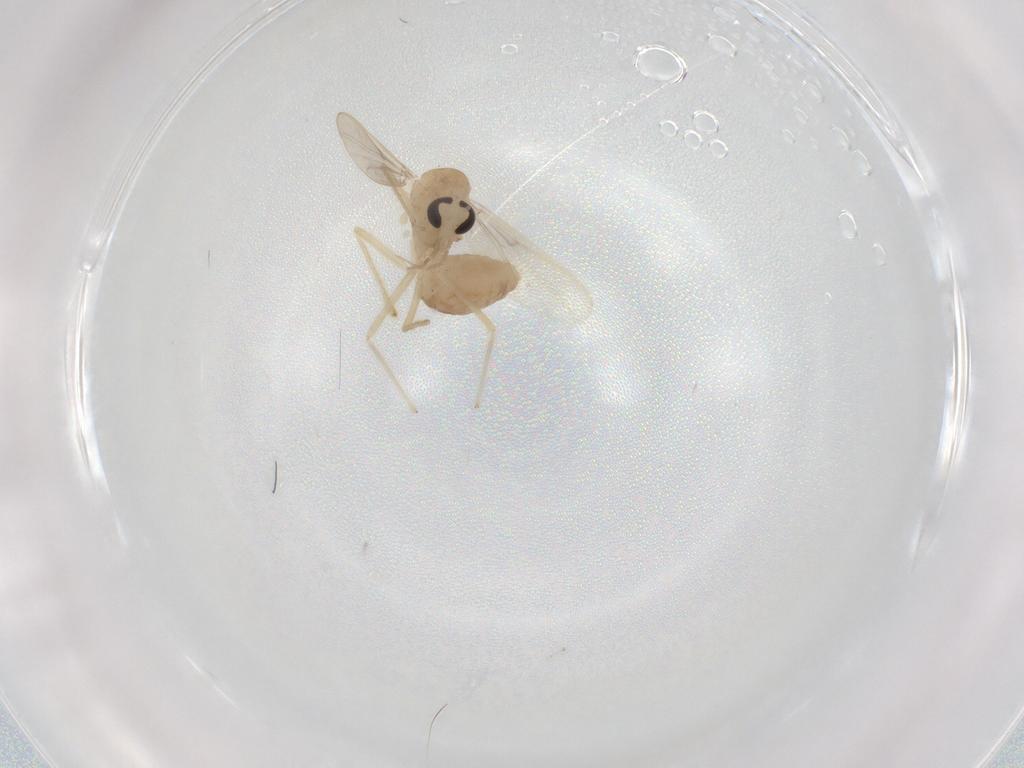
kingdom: Animalia
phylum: Arthropoda
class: Insecta
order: Diptera
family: Chironomidae
